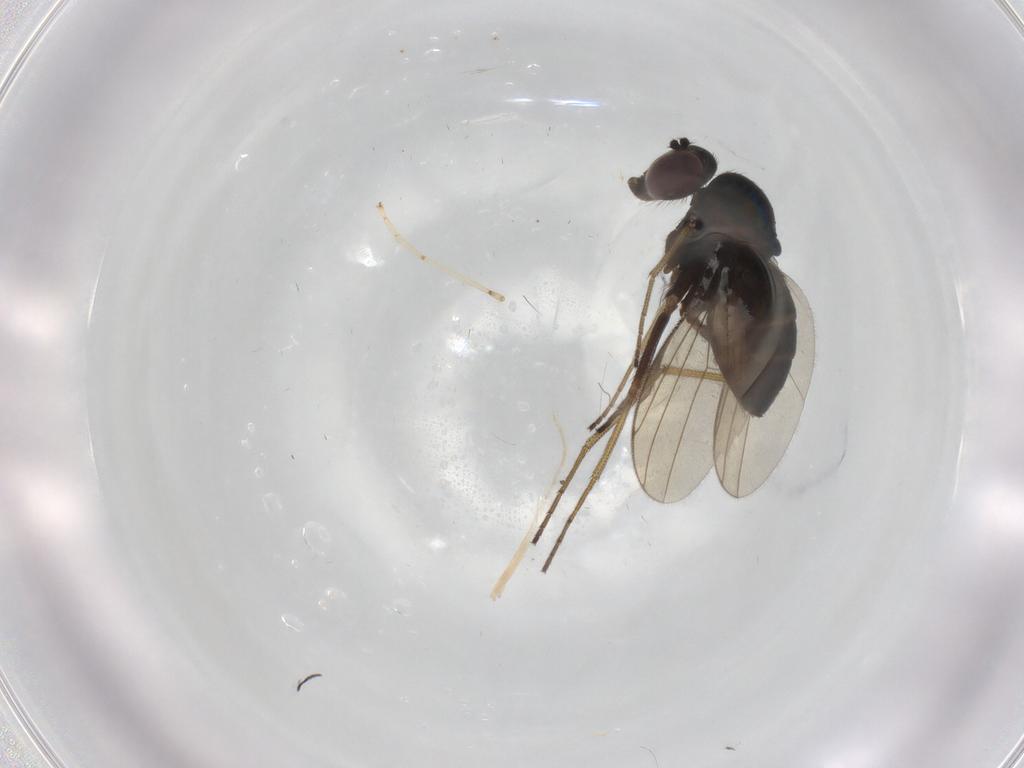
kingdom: Animalia
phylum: Arthropoda
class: Insecta
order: Diptera
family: Dolichopodidae
